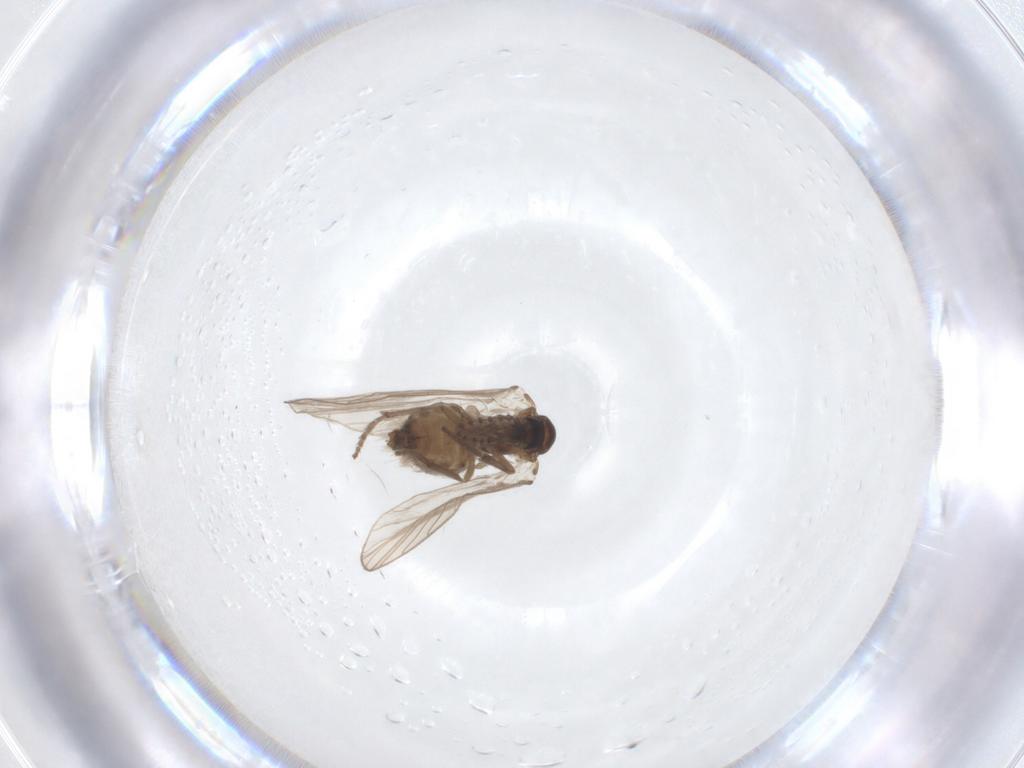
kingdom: Animalia
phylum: Arthropoda
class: Insecta
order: Diptera
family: Psychodidae
